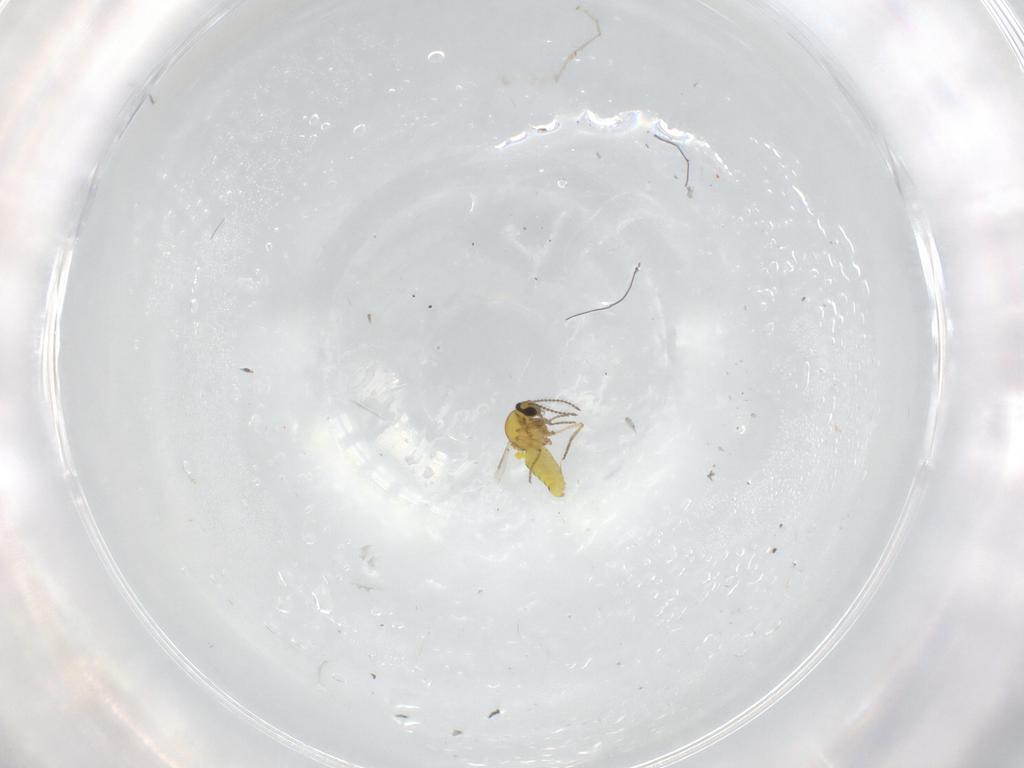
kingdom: Animalia
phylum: Arthropoda
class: Insecta
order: Diptera
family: Ceratopogonidae
